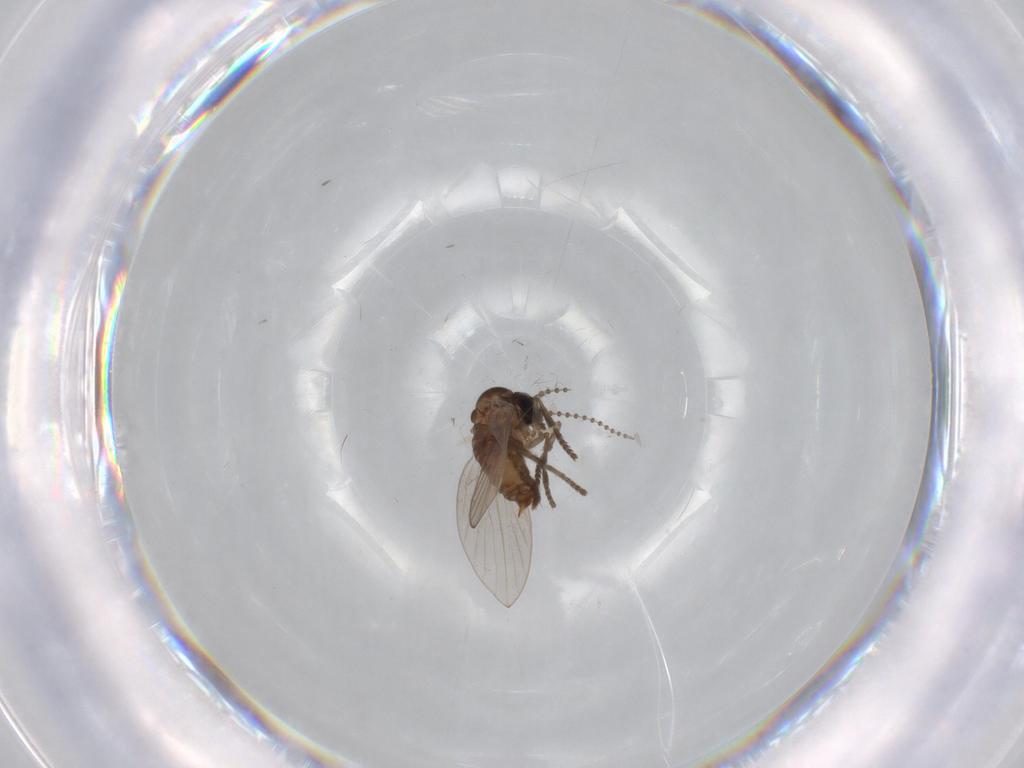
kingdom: Animalia
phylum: Arthropoda
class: Insecta
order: Diptera
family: Psychodidae
